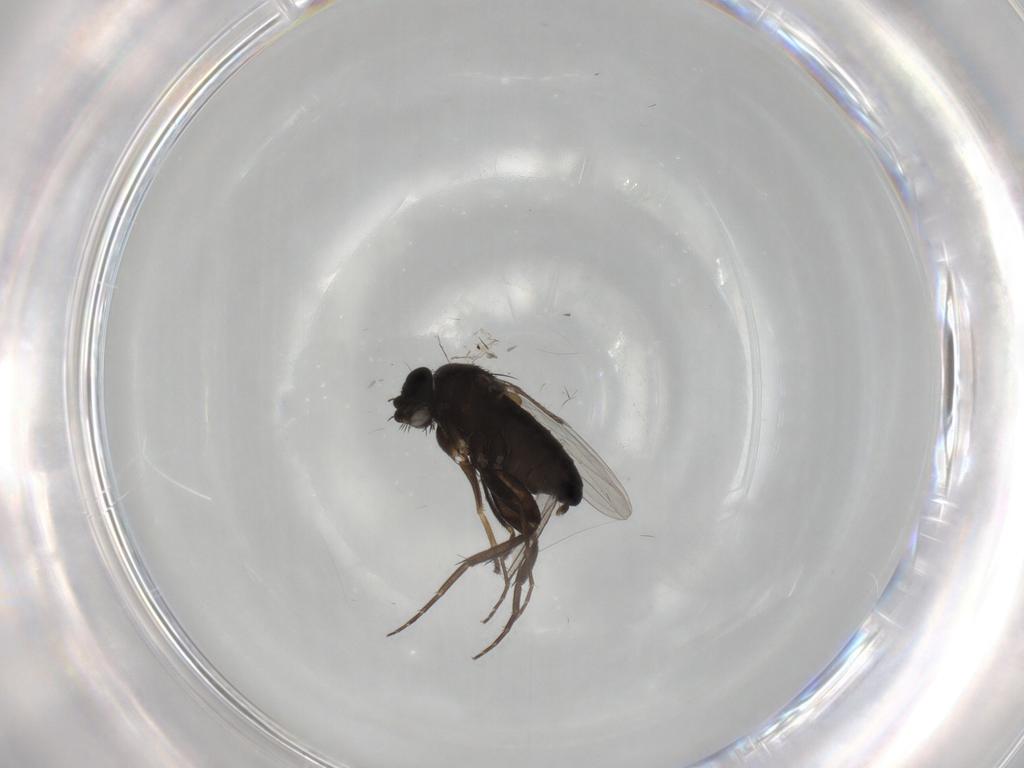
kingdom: Animalia
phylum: Arthropoda
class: Insecta
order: Diptera
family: Phoridae
